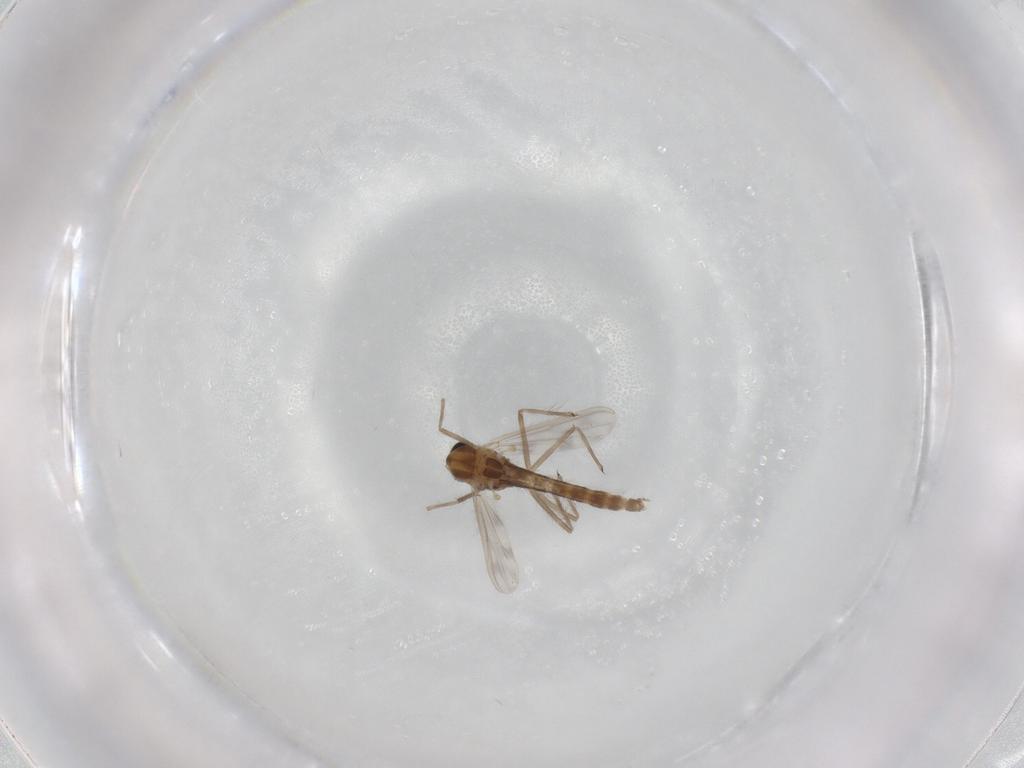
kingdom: Animalia
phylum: Arthropoda
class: Insecta
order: Diptera
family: Chironomidae
